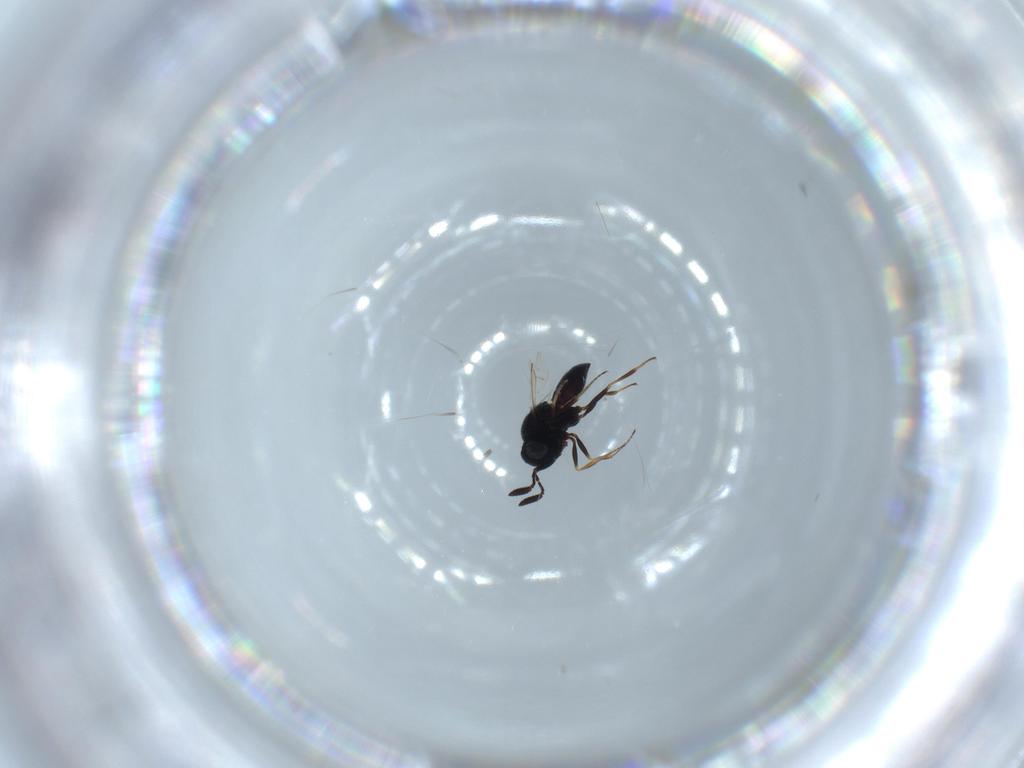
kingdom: Animalia
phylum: Arthropoda
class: Insecta
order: Hymenoptera
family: Scelionidae
